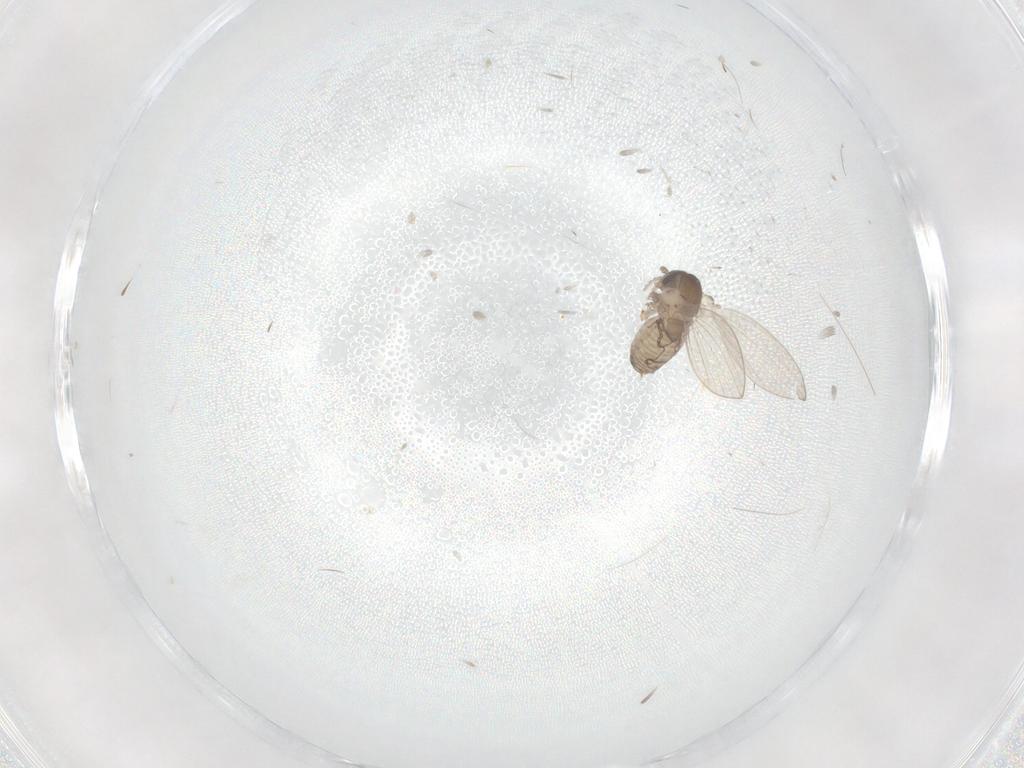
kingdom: Animalia
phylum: Arthropoda
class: Insecta
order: Diptera
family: Psychodidae
